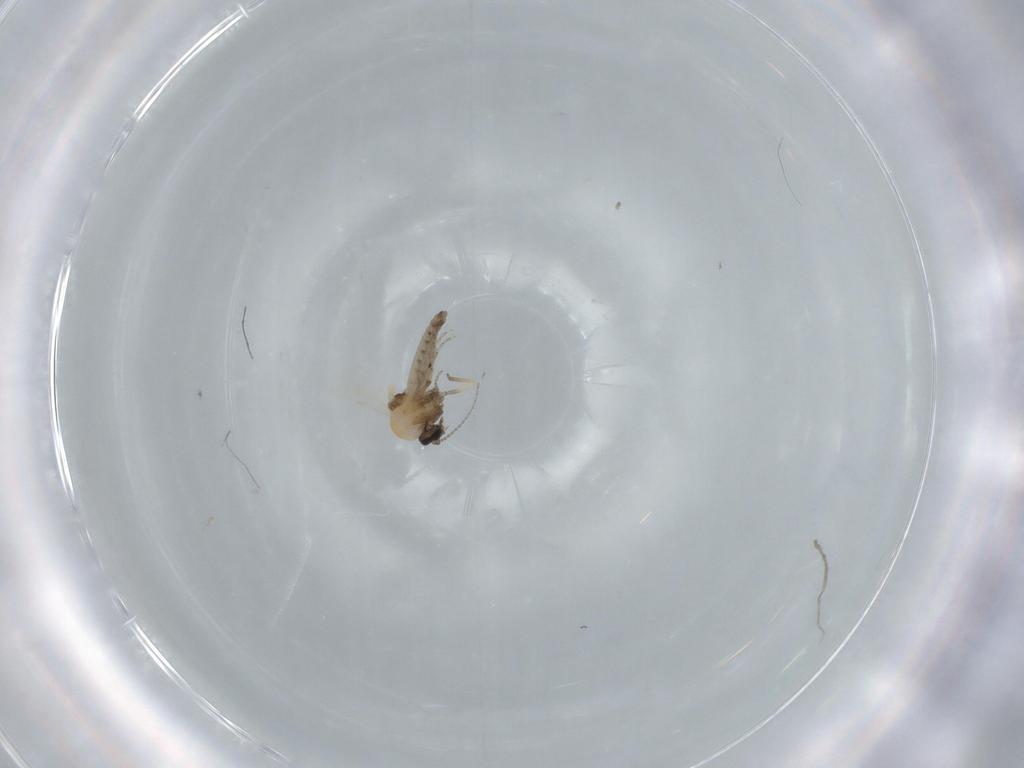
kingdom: Animalia
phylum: Arthropoda
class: Insecta
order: Diptera
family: Ceratopogonidae
